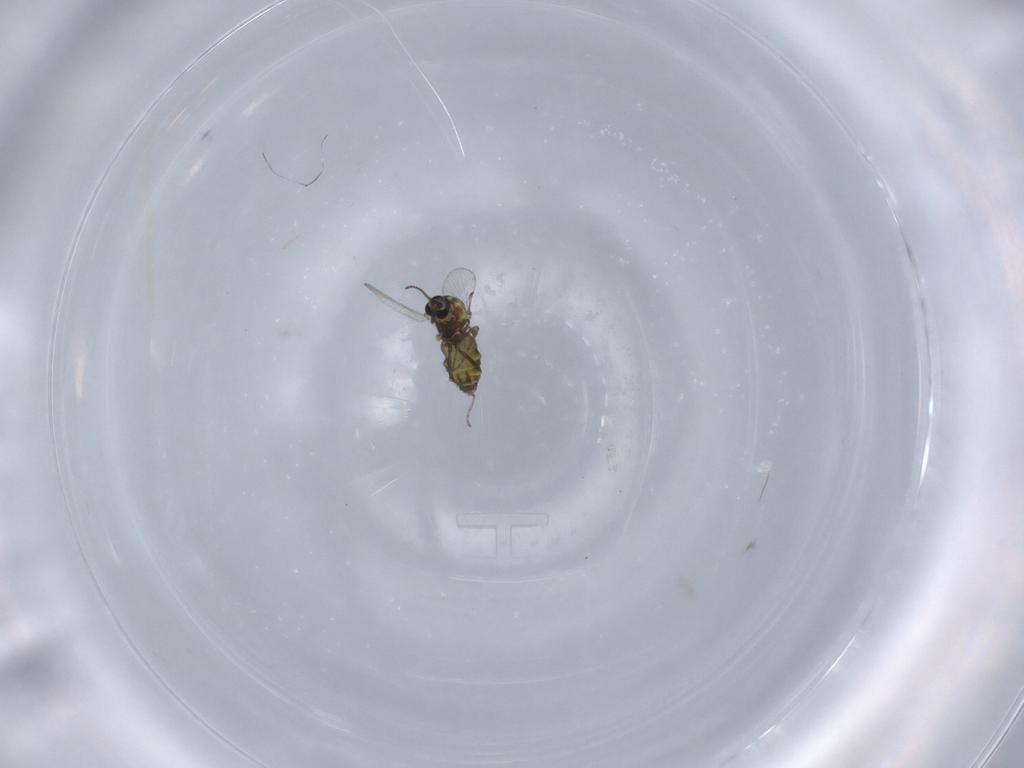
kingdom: Animalia
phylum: Arthropoda
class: Insecta
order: Diptera
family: Ceratopogonidae
